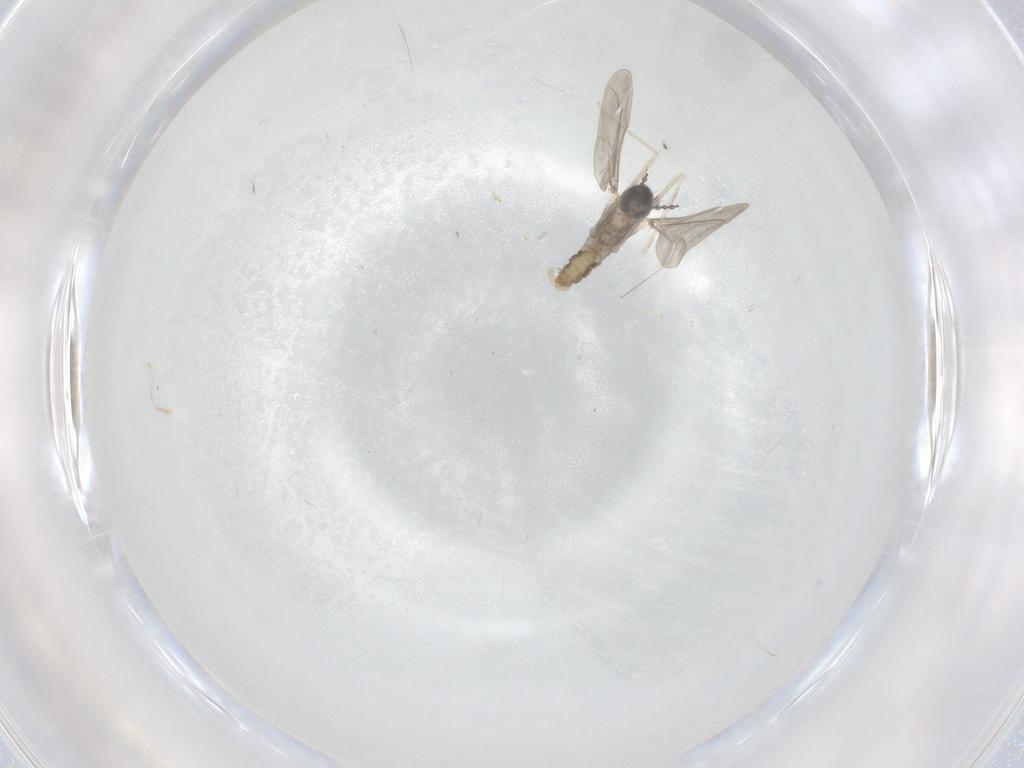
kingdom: Animalia
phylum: Arthropoda
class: Insecta
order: Diptera
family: Cecidomyiidae
